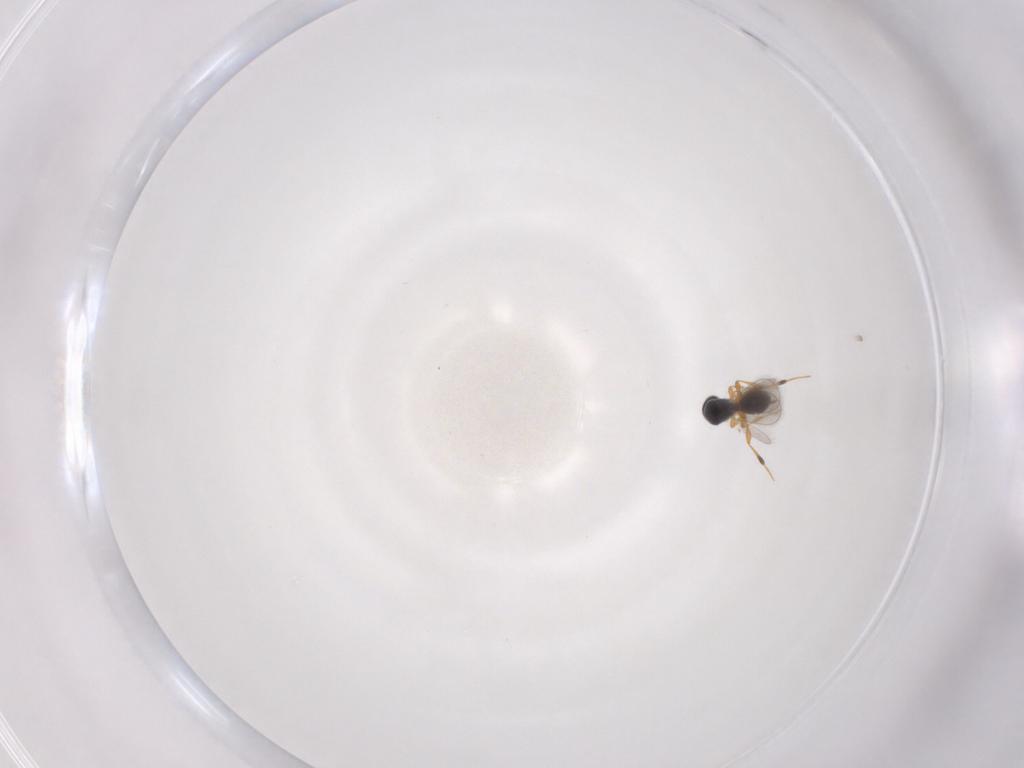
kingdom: Animalia
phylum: Arthropoda
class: Insecta
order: Hymenoptera
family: Platygastridae
